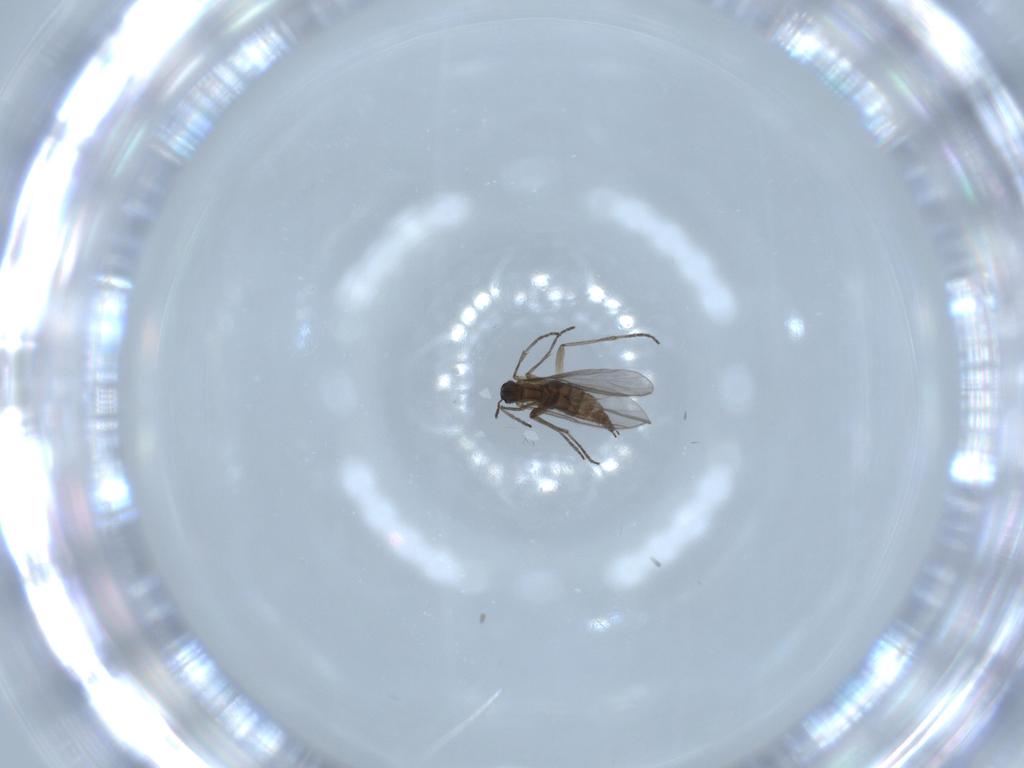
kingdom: Animalia
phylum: Arthropoda
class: Insecta
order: Diptera
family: Sciaridae
